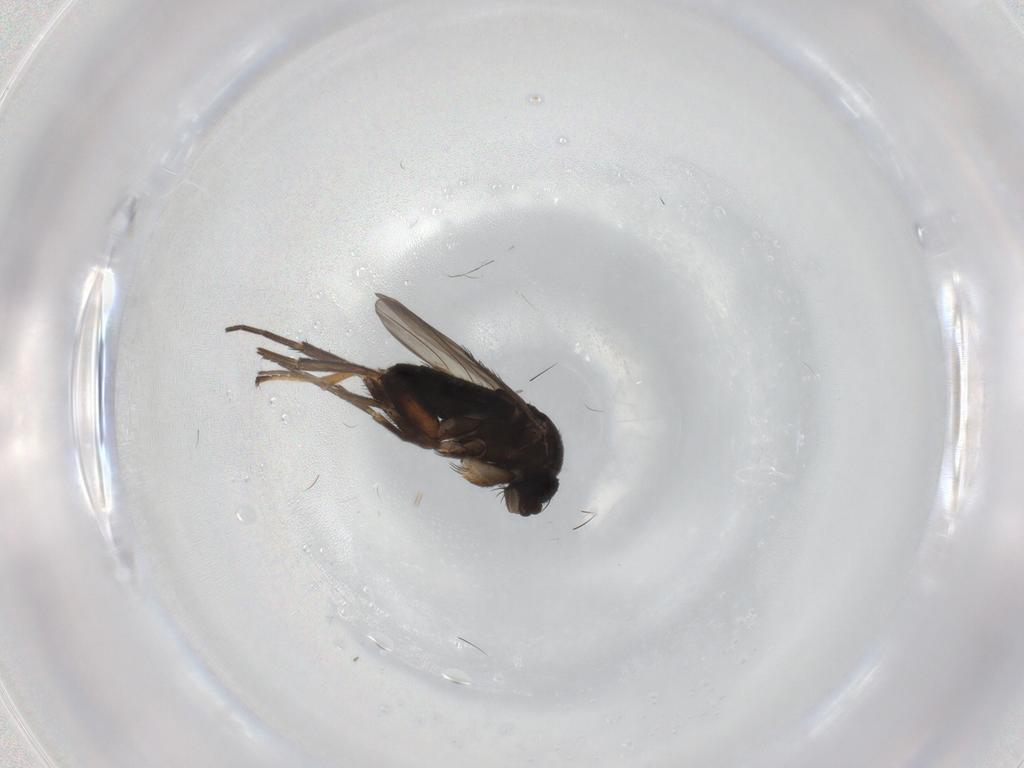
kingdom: Animalia
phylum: Arthropoda
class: Insecta
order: Diptera
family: Phoridae
